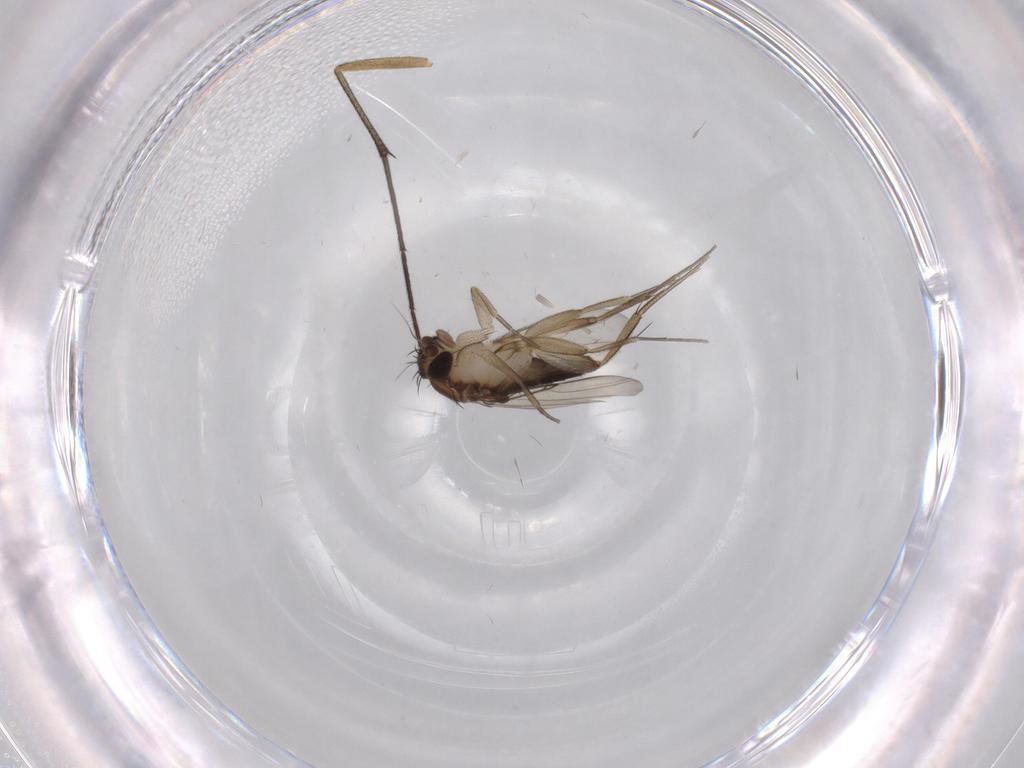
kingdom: Animalia
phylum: Arthropoda
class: Insecta
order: Diptera
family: Phoridae
